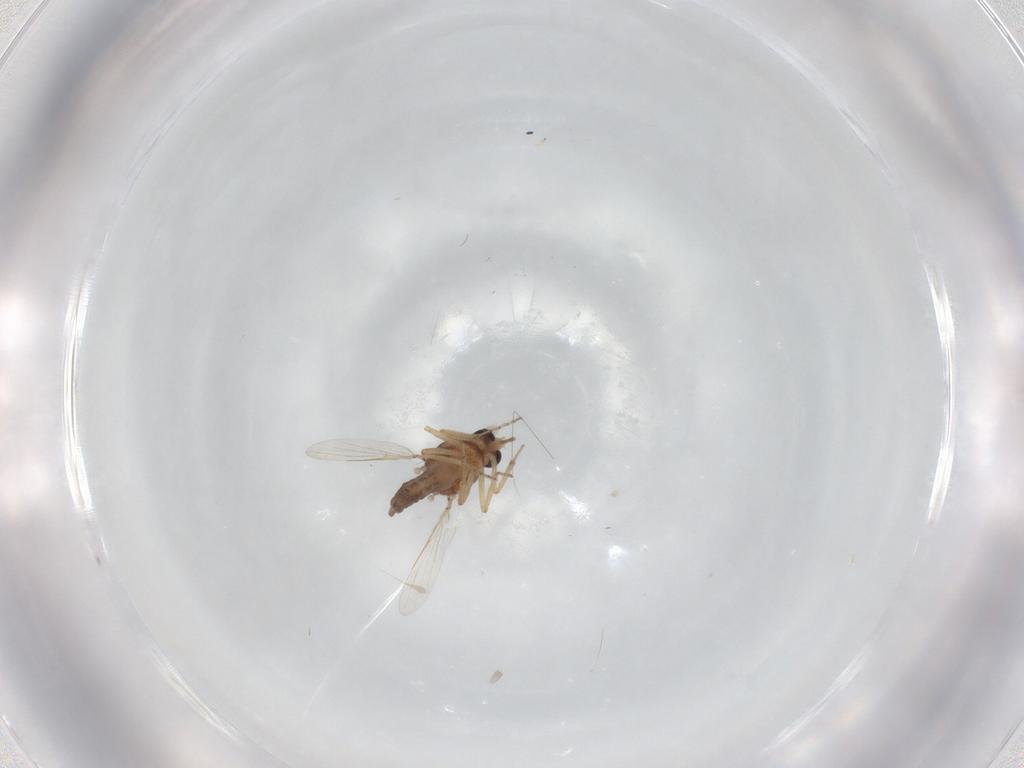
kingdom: Animalia
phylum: Arthropoda
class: Insecta
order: Diptera
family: Ceratopogonidae
